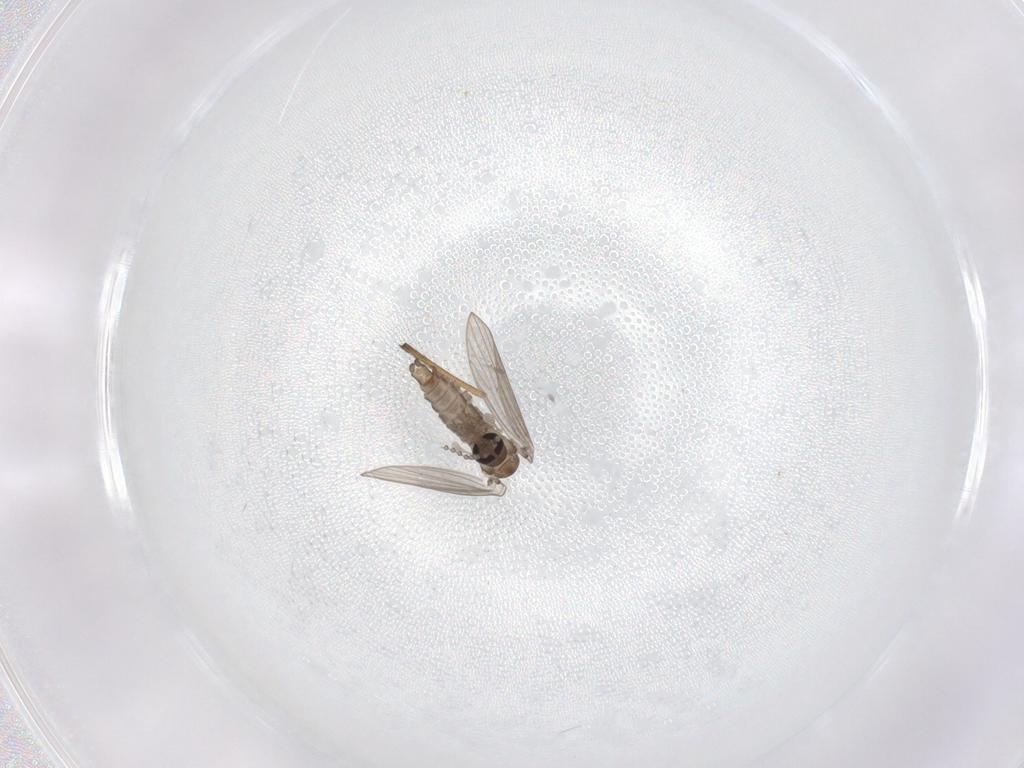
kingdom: Animalia
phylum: Arthropoda
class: Insecta
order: Diptera
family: Psychodidae
